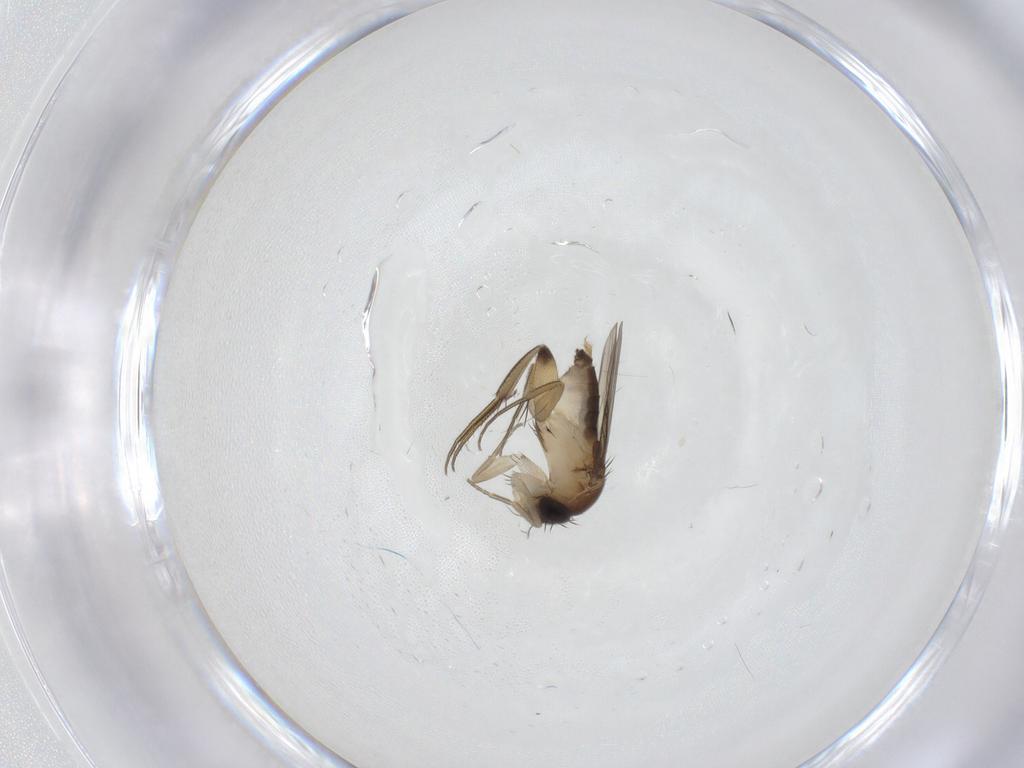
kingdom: Animalia
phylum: Arthropoda
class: Insecta
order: Diptera
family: Phoridae
